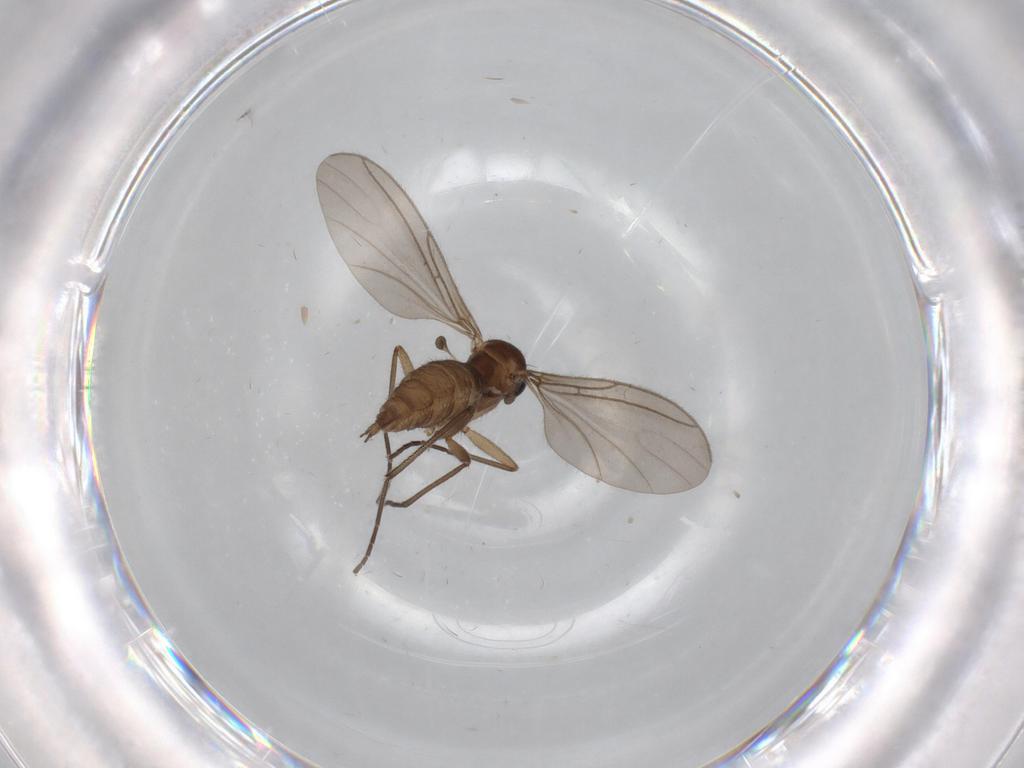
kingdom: Animalia
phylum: Arthropoda
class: Insecta
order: Diptera
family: Sciaridae
